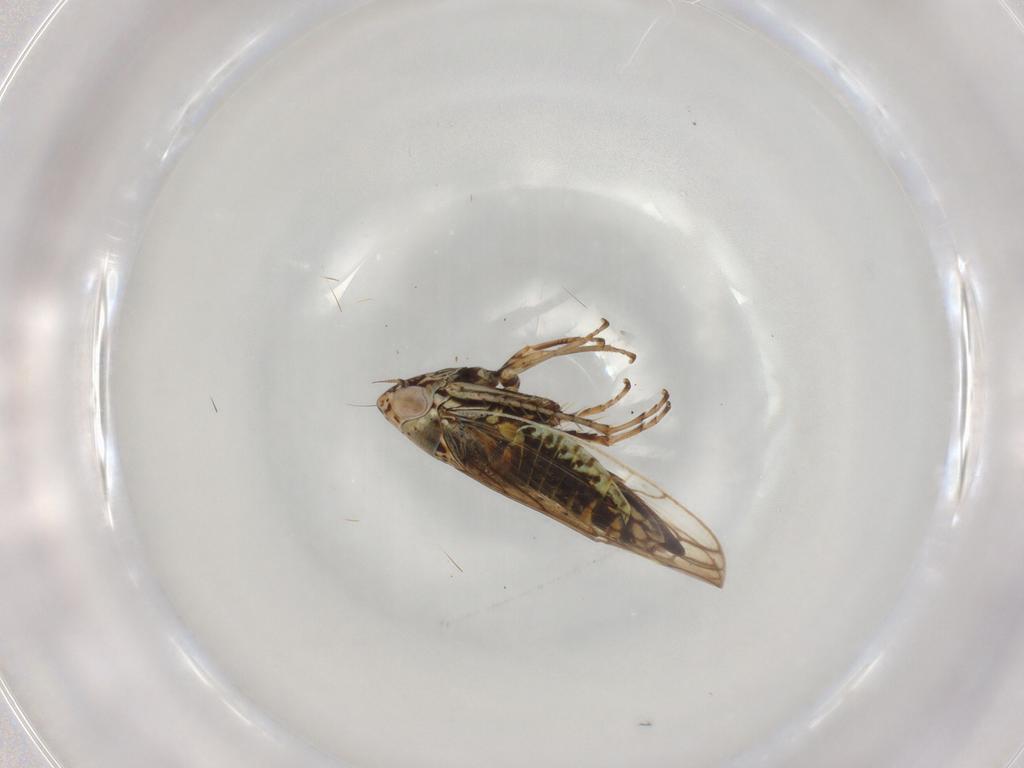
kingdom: Animalia
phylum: Arthropoda
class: Insecta
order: Hemiptera
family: Cicadellidae
